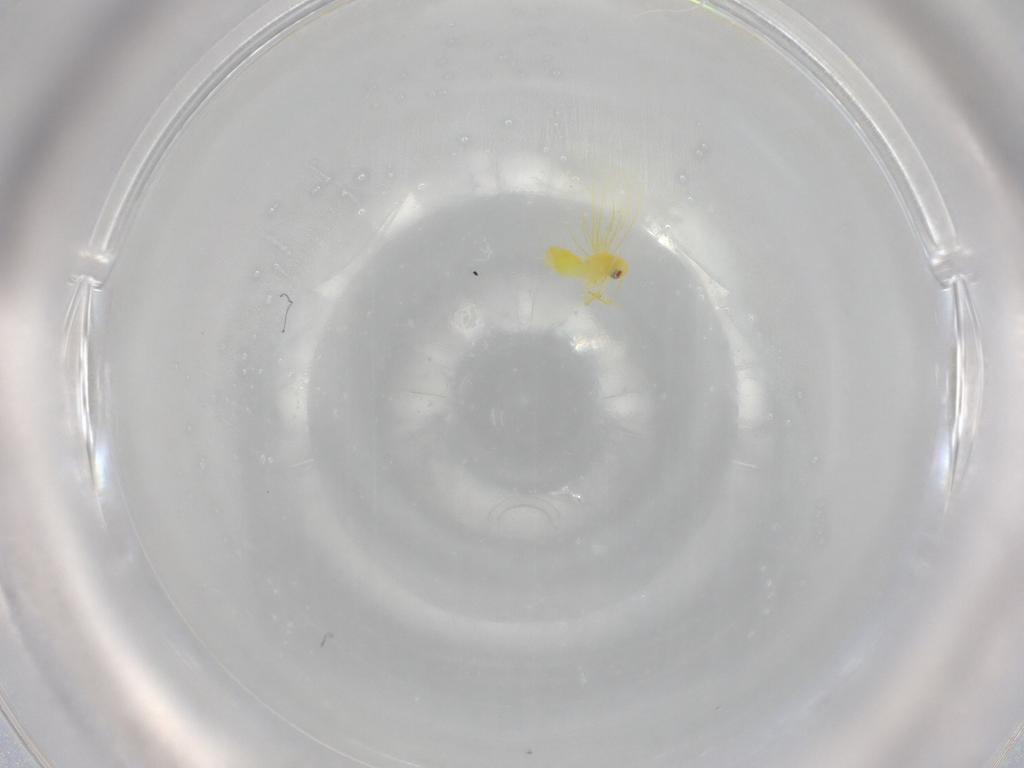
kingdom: Animalia
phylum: Arthropoda
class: Insecta
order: Hemiptera
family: Aleyrodidae
